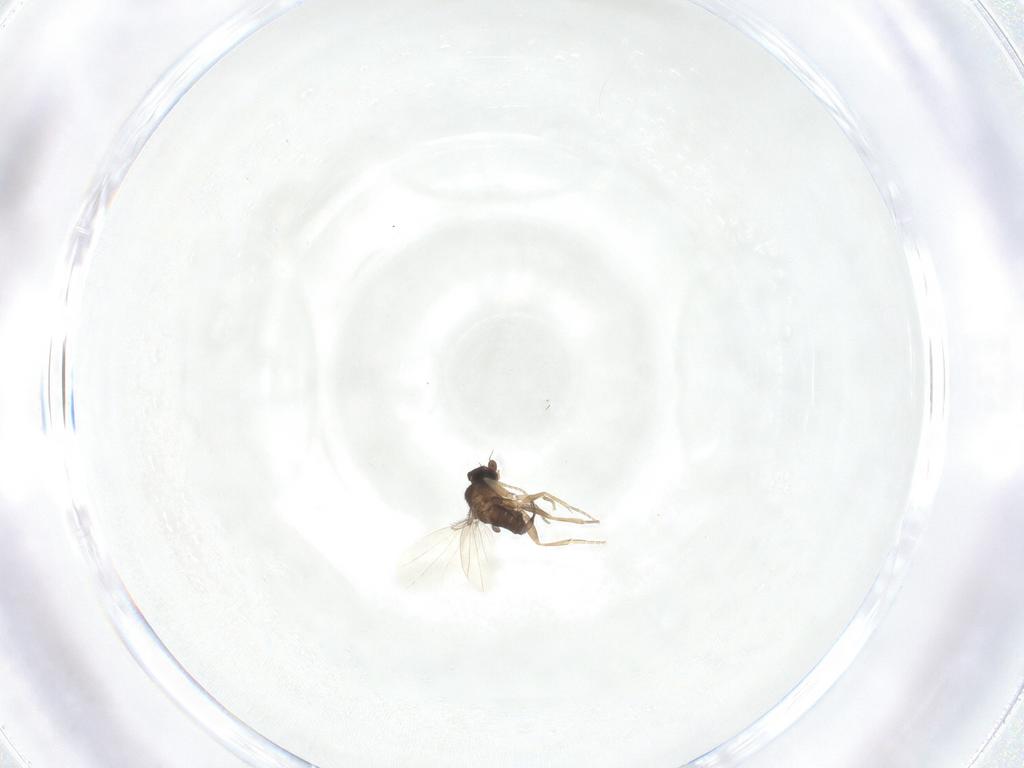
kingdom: Animalia
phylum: Arthropoda
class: Insecta
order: Diptera
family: Phoridae
